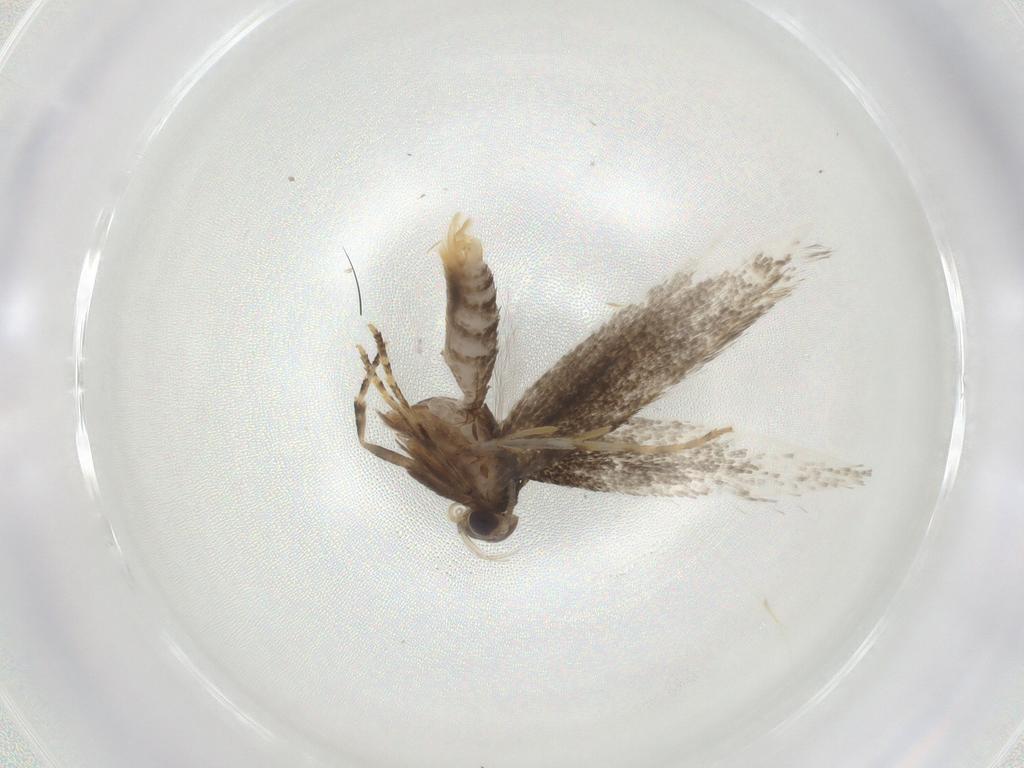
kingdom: Animalia
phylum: Arthropoda
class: Insecta
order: Lepidoptera
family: Elachistidae
